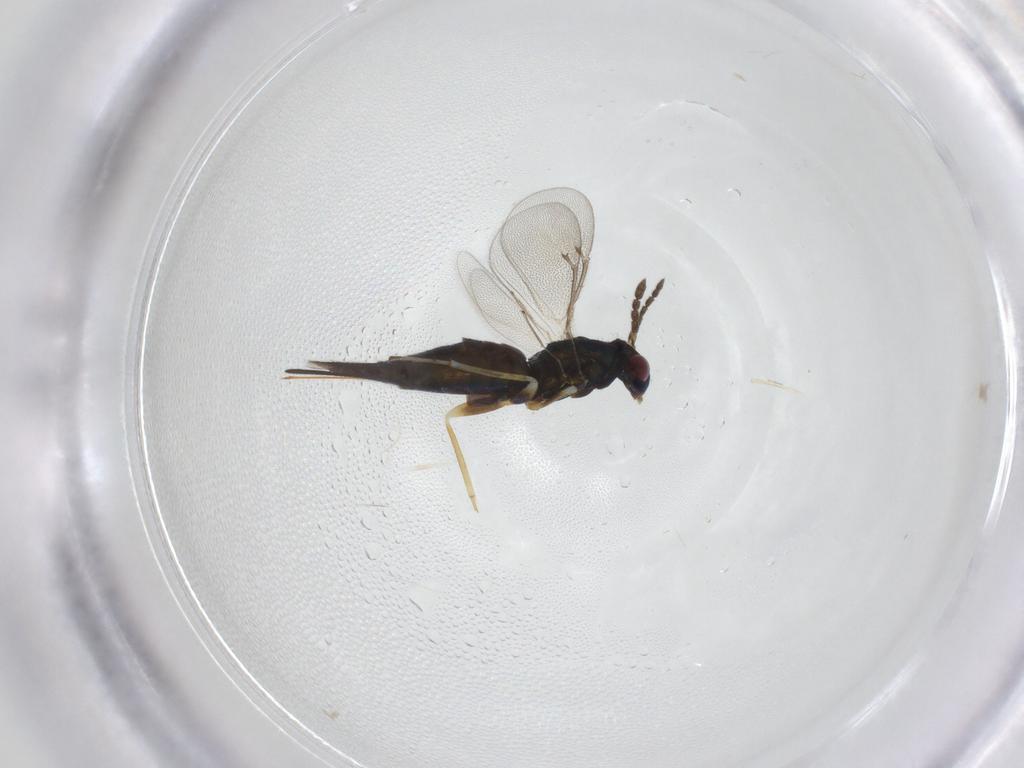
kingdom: Animalia
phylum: Arthropoda
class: Insecta
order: Hymenoptera
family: Eulophidae
